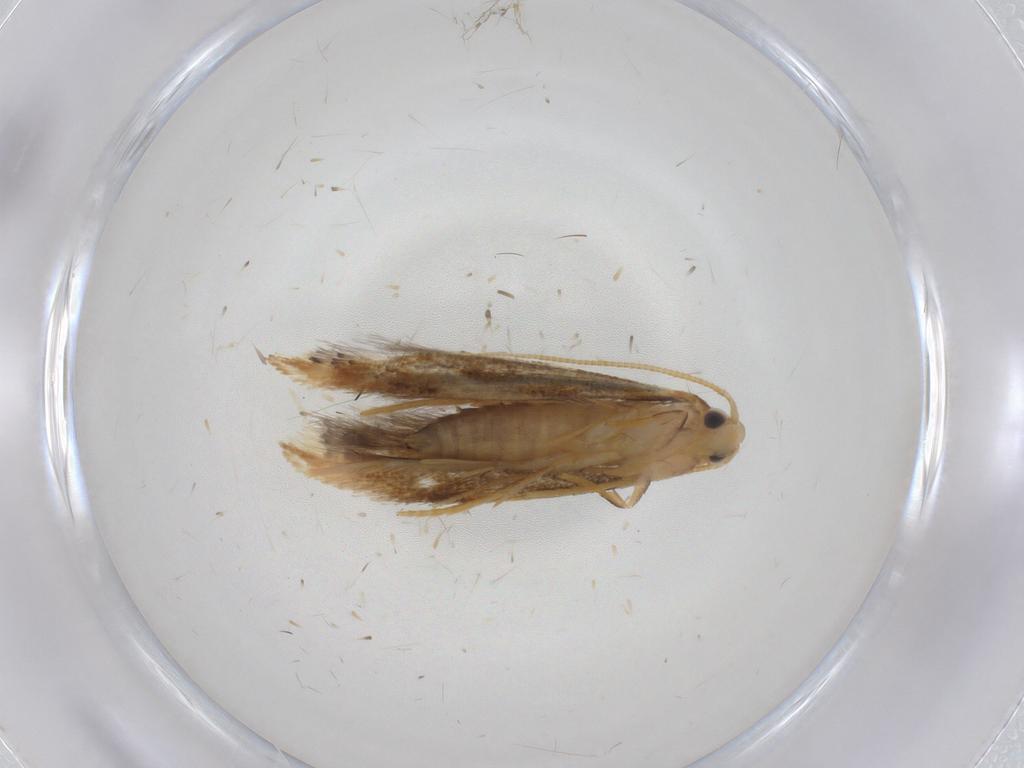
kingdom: Animalia
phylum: Arthropoda
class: Insecta
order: Lepidoptera
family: Tineidae
